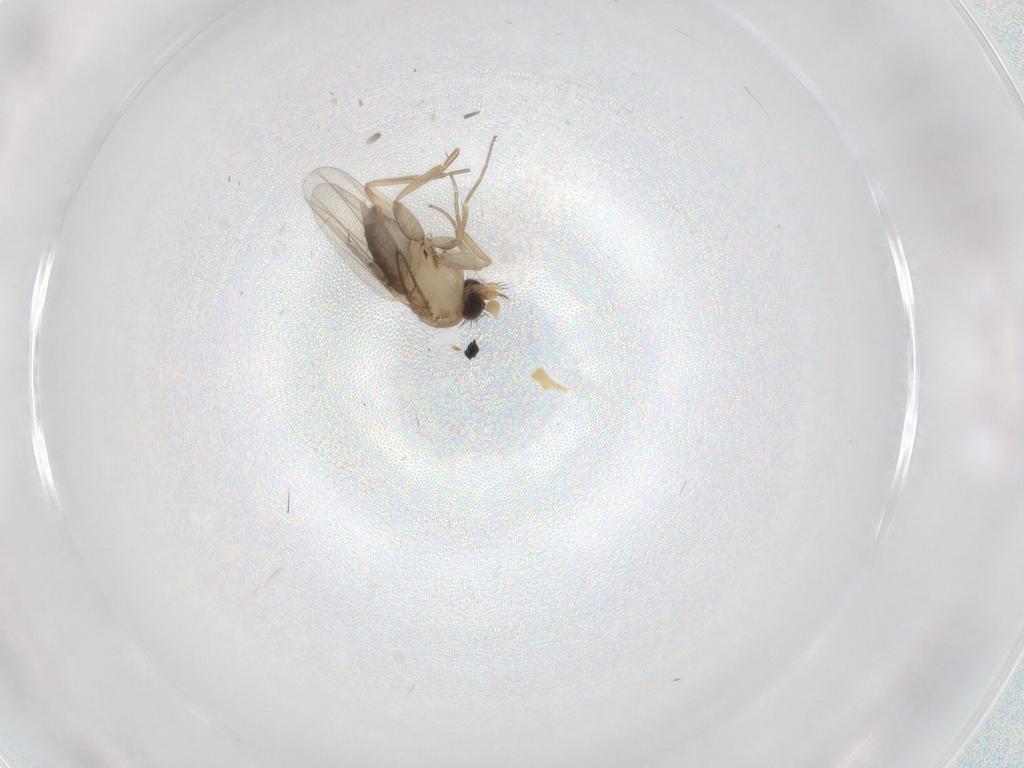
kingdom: Animalia
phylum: Arthropoda
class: Insecta
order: Diptera
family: Phoridae
